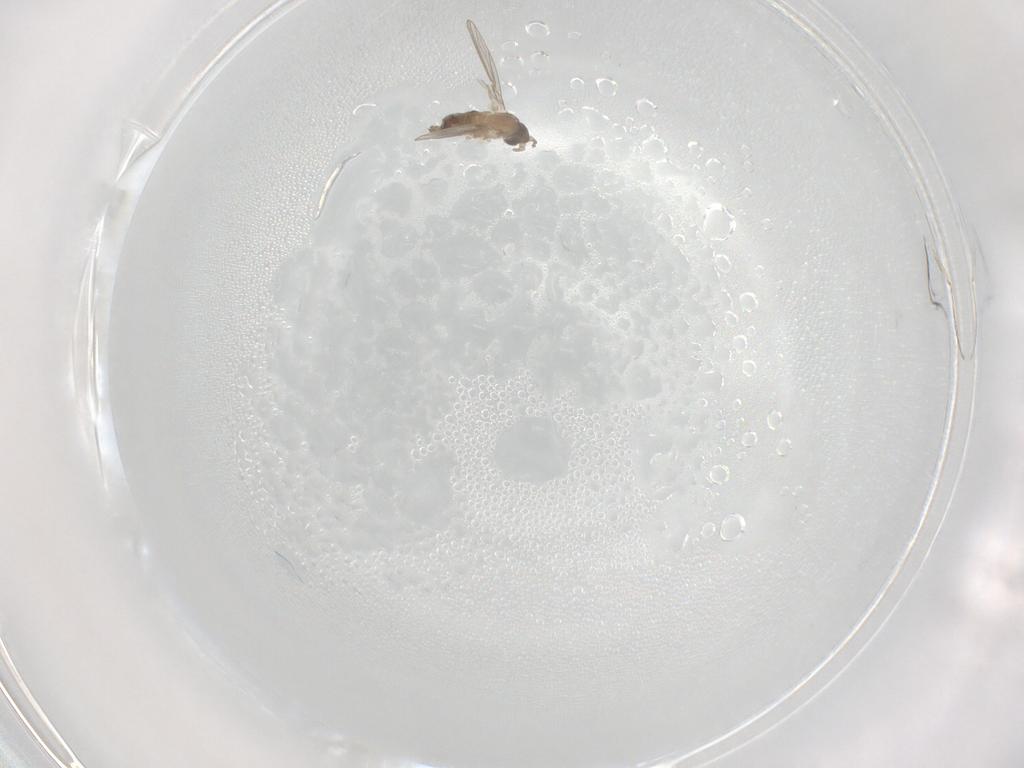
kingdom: Animalia
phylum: Arthropoda
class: Insecta
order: Diptera
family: Psychodidae
